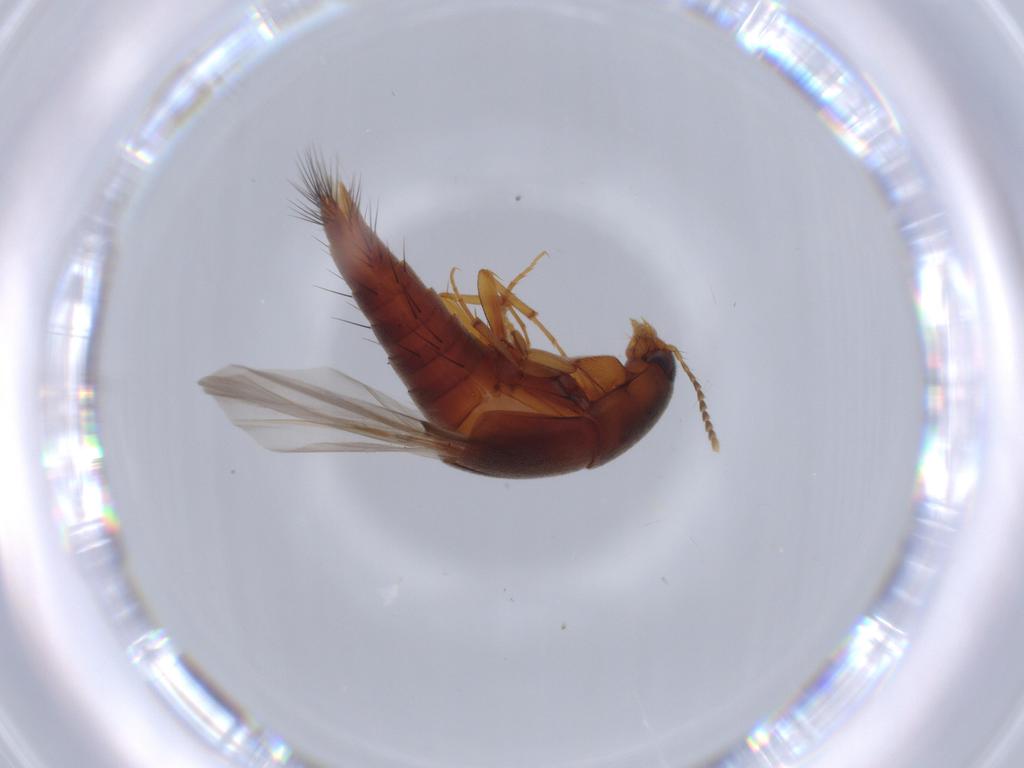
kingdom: Animalia
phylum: Arthropoda
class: Insecta
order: Coleoptera
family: Staphylinidae
